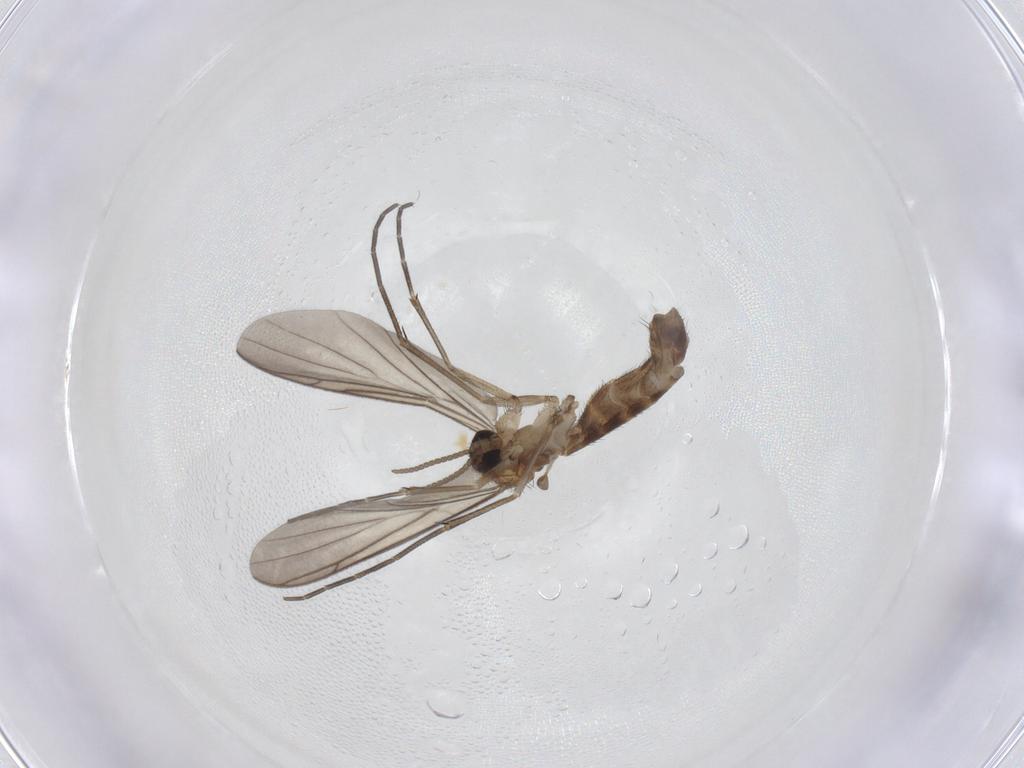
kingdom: Animalia
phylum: Arthropoda
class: Insecta
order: Diptera
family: Keroplatidae
